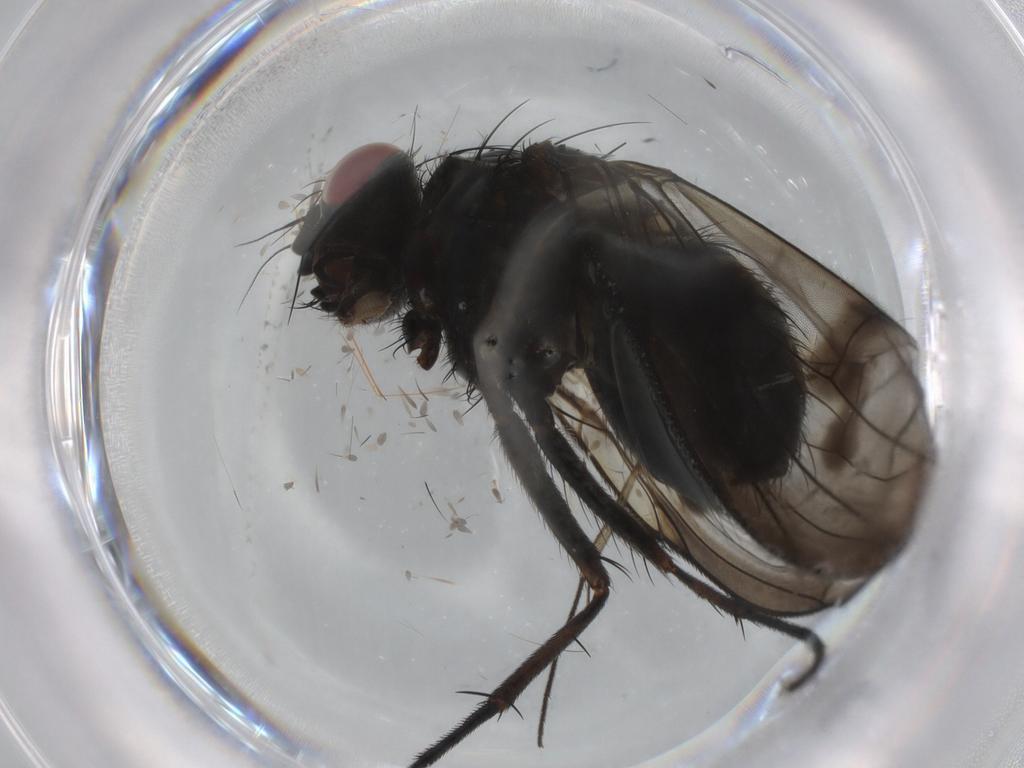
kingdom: Animalia
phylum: Arthropoda
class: Insecta
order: Diptera
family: Muscidae
